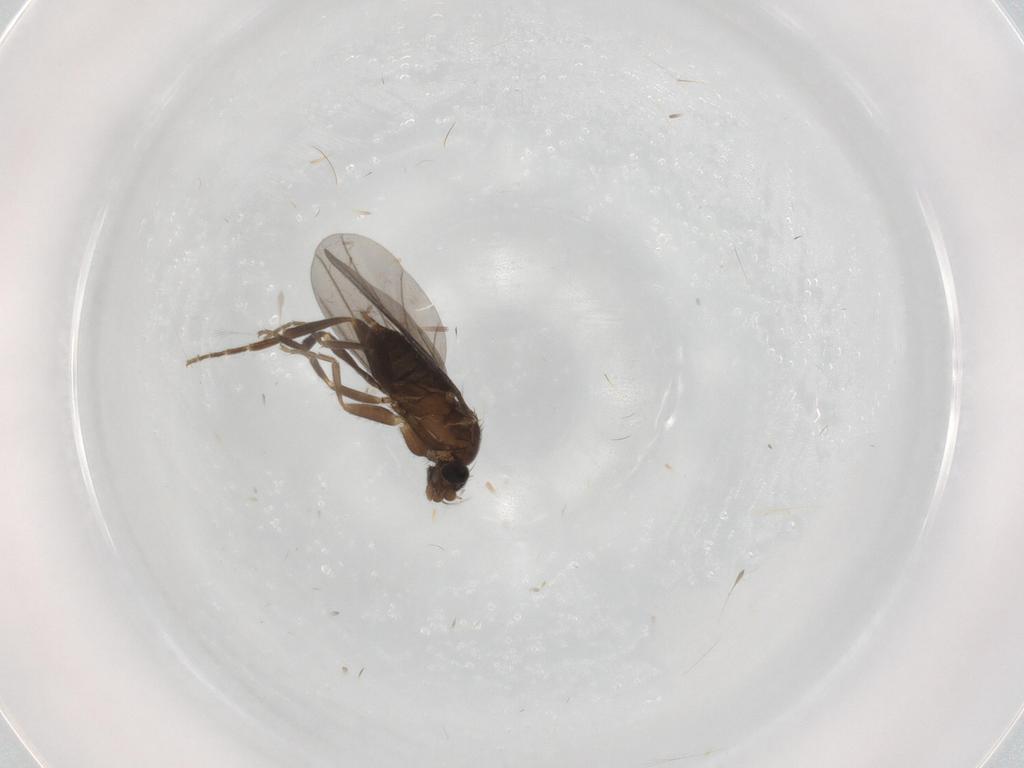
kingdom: Animalia
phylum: Arthropoda
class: Insecta
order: Diptera
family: Phoridae
